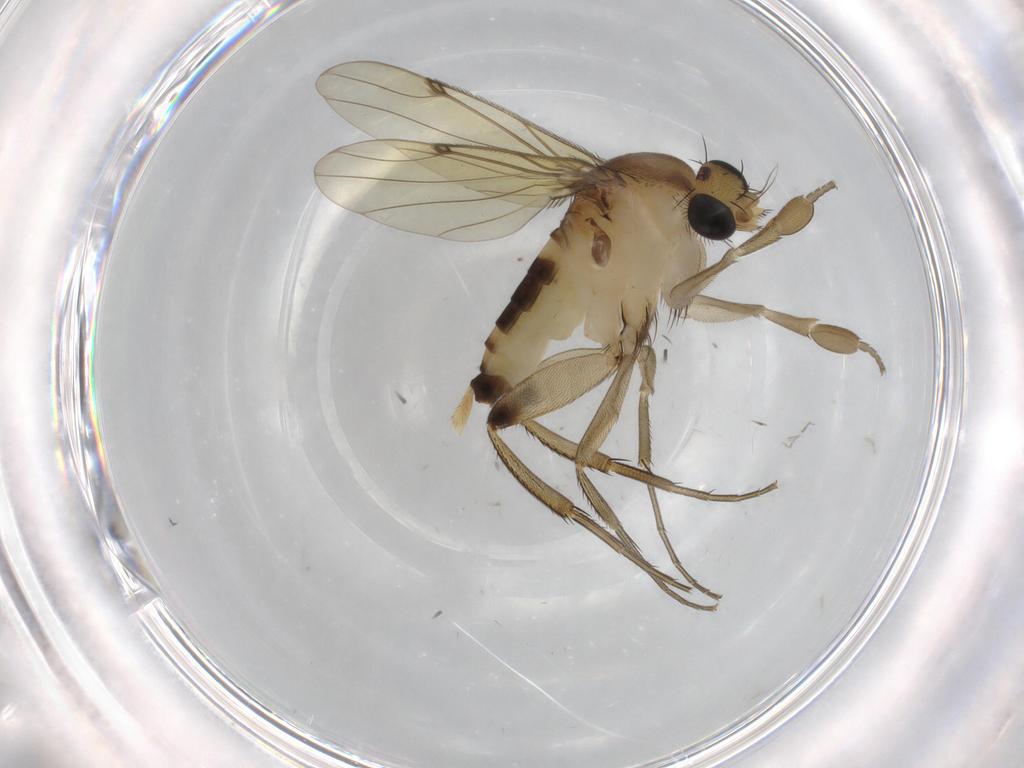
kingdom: Animalia
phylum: Arthropoda
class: Insecta
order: Diptera
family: Phoridae
